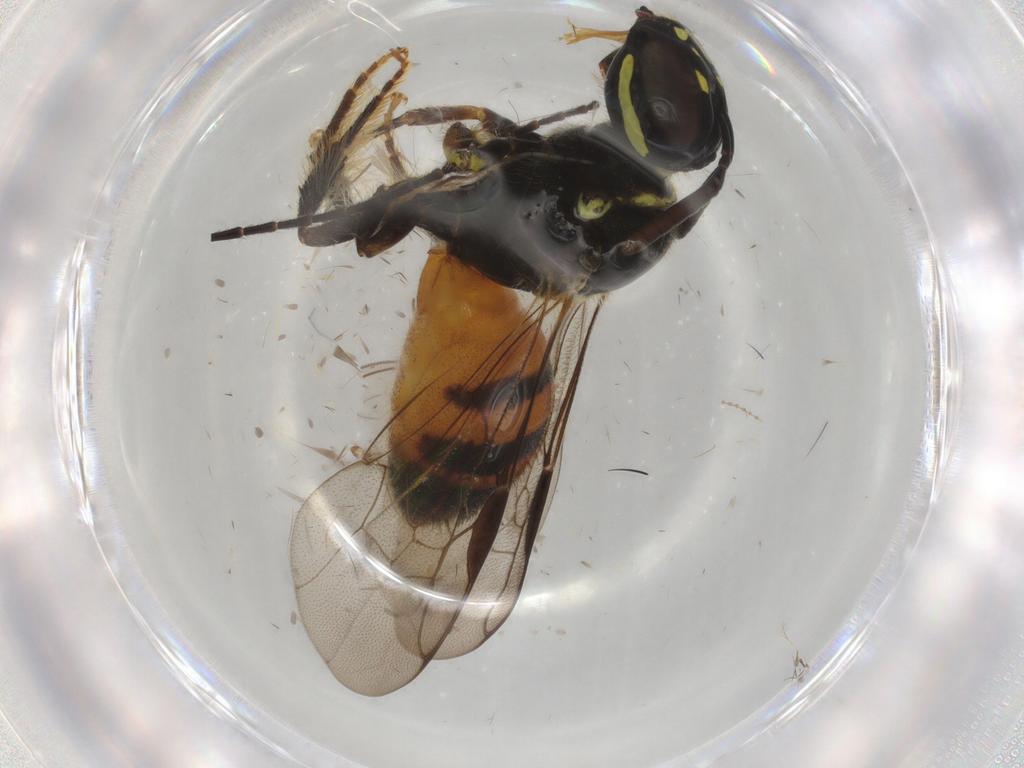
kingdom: Animalia
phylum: Arthropoda
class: Insecta
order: Hymenoptera
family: Apidae
